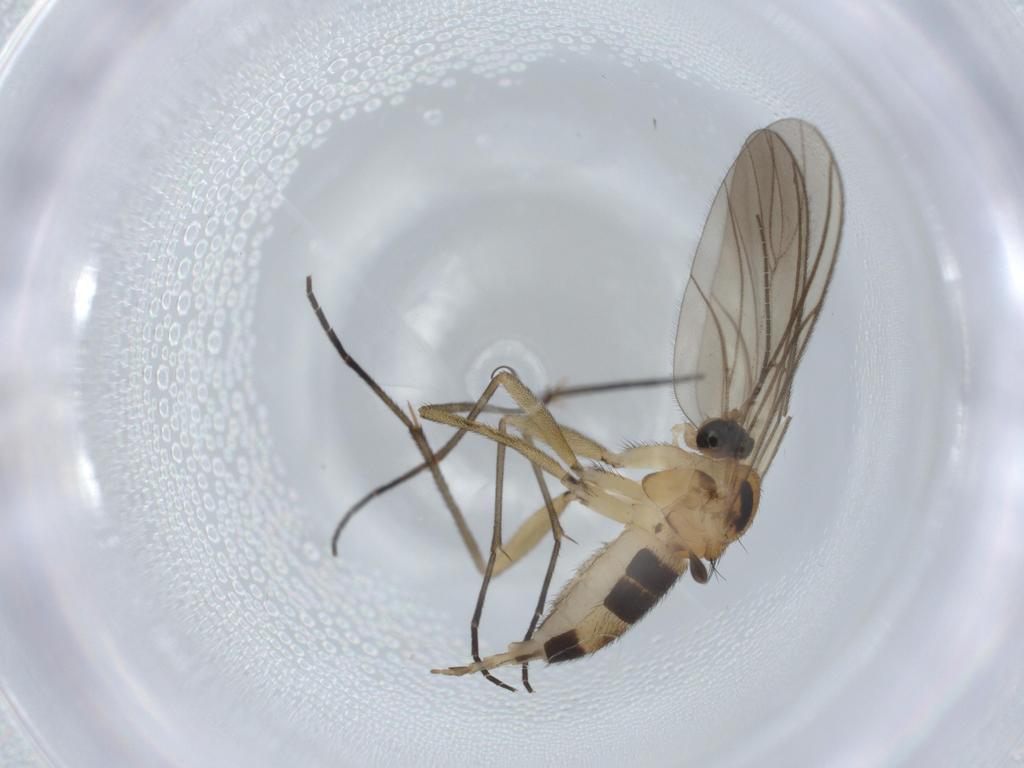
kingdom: Animalia
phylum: Arthropoda
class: Insecta
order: Diptera
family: Sciaridae
